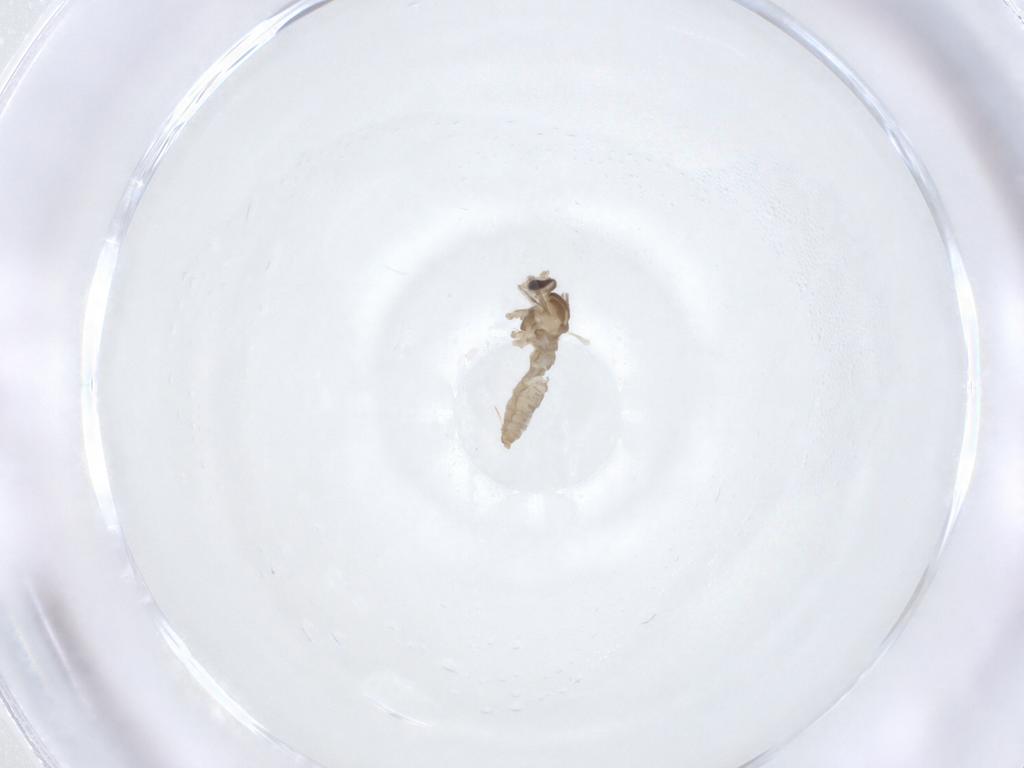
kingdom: Animalia
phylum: Arthropoda
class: Insecta
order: Diptera
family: Cecidomyiidae
